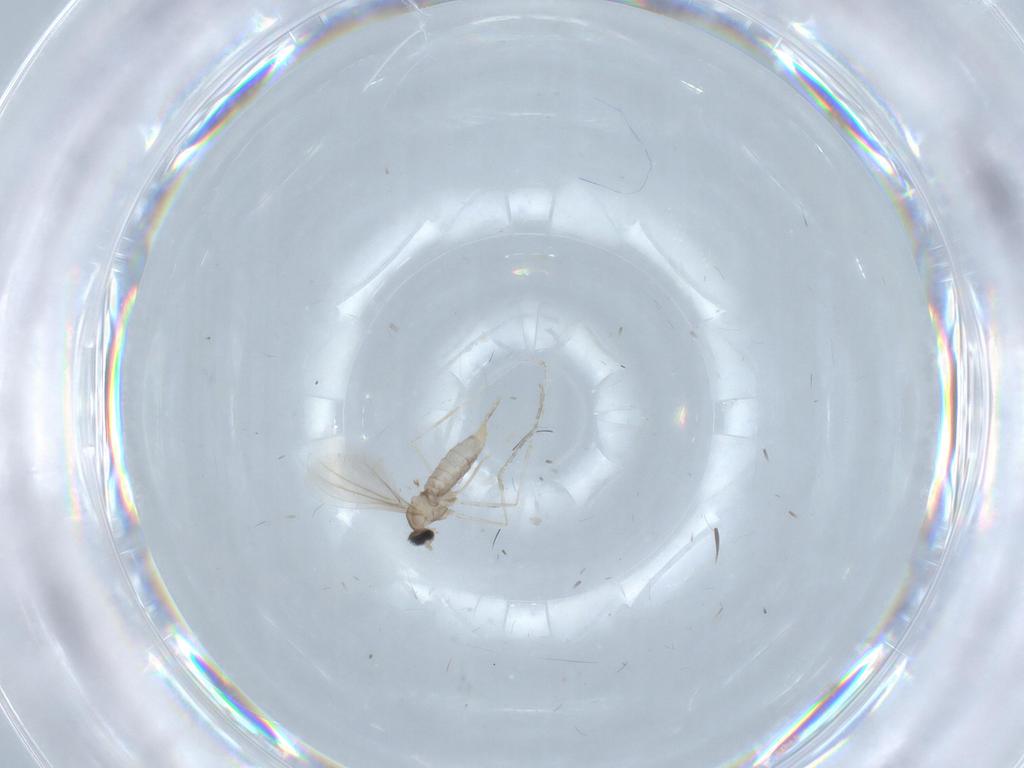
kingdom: Animalia
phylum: Arthropoda
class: Insecta
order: Diptera
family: Cecidomyiidae
